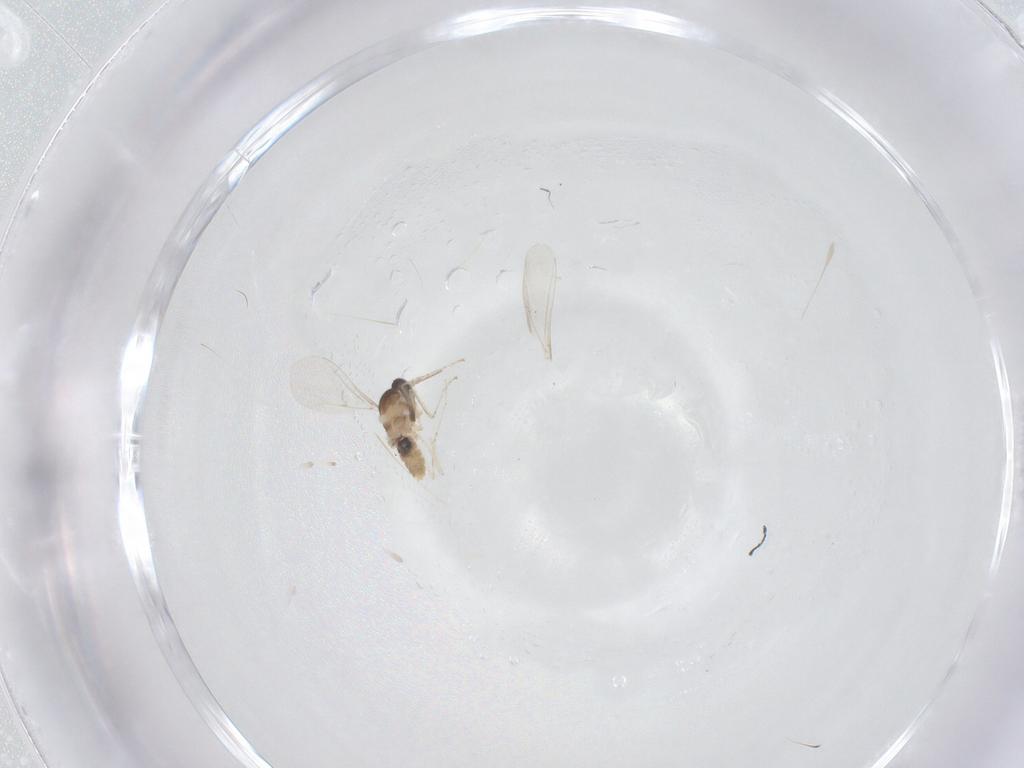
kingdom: Animalia
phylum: Arthropoda
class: Insecta
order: Diptera
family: Cecidomyiidae
